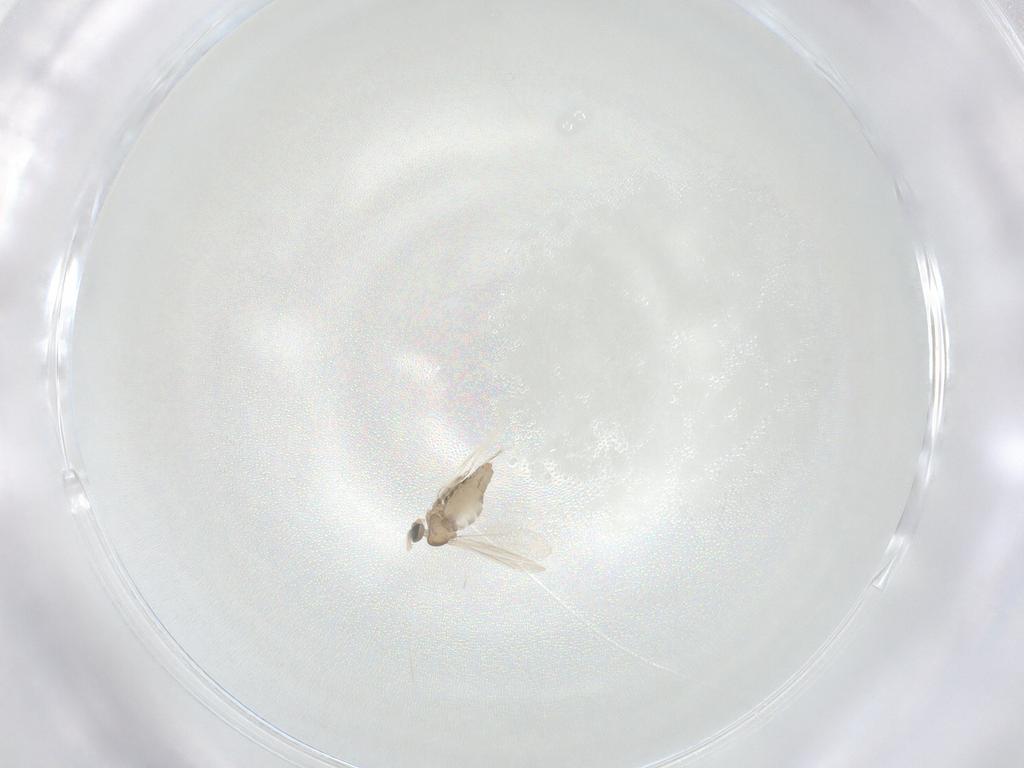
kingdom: Animalia
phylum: Arthropoda
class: Insecta
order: Diptera
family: Cecidomyiidae
